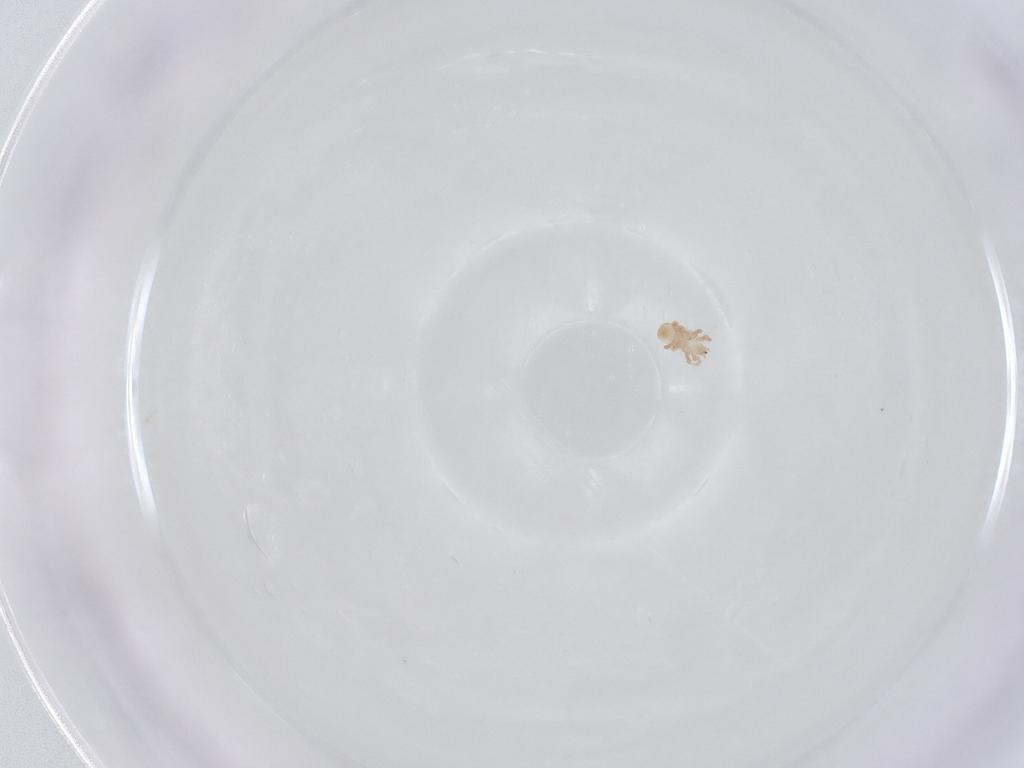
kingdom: Animalia
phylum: Arthropoda
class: Arachnida
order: Mesostigmata
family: Digamasellidae
